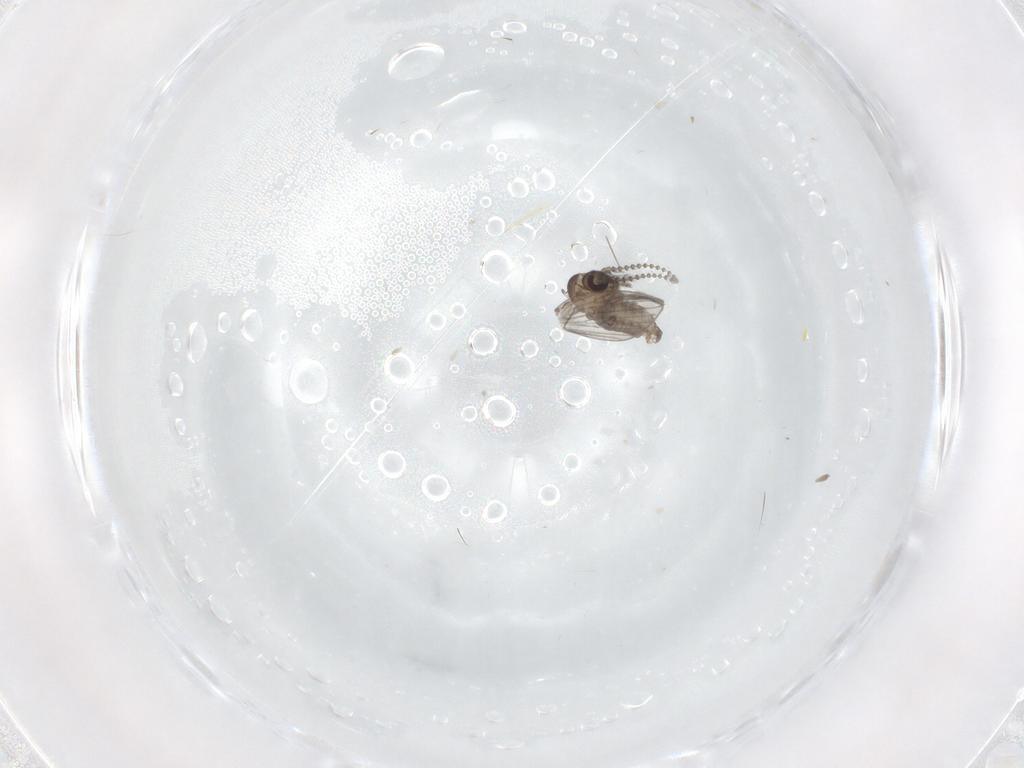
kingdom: Animalia
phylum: Arthropoda
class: Insecta
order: Diptera
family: Psychodidae
